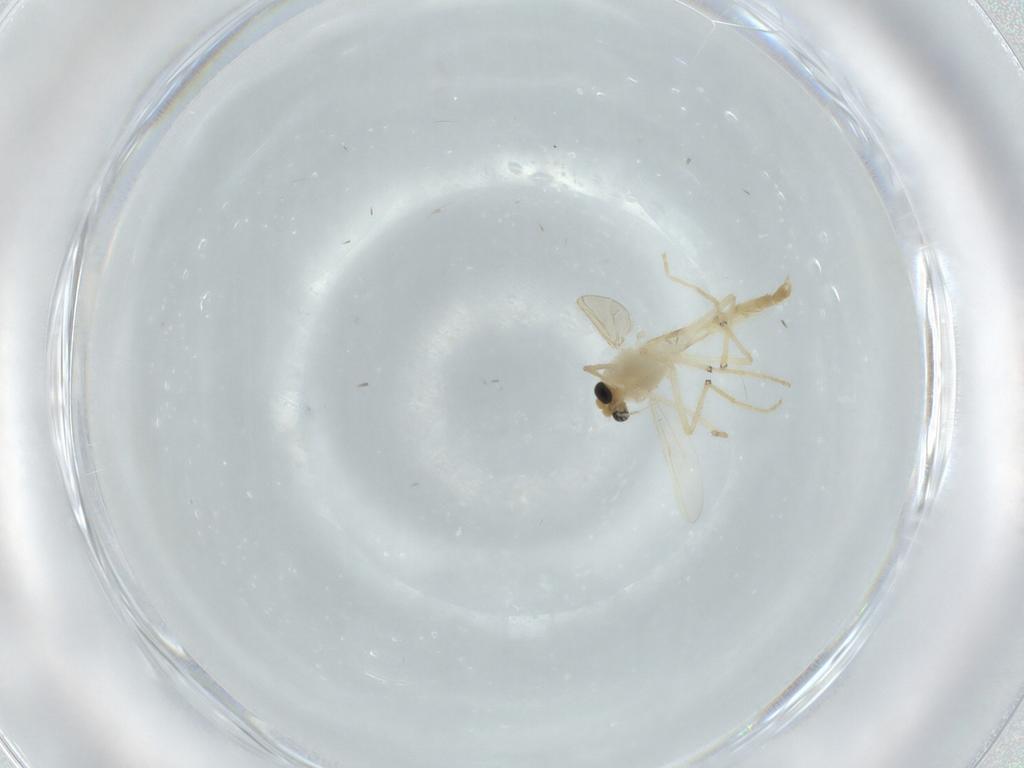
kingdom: Animalia
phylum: Arthropoda
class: Insecta
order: Diptera
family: Chironomidae
